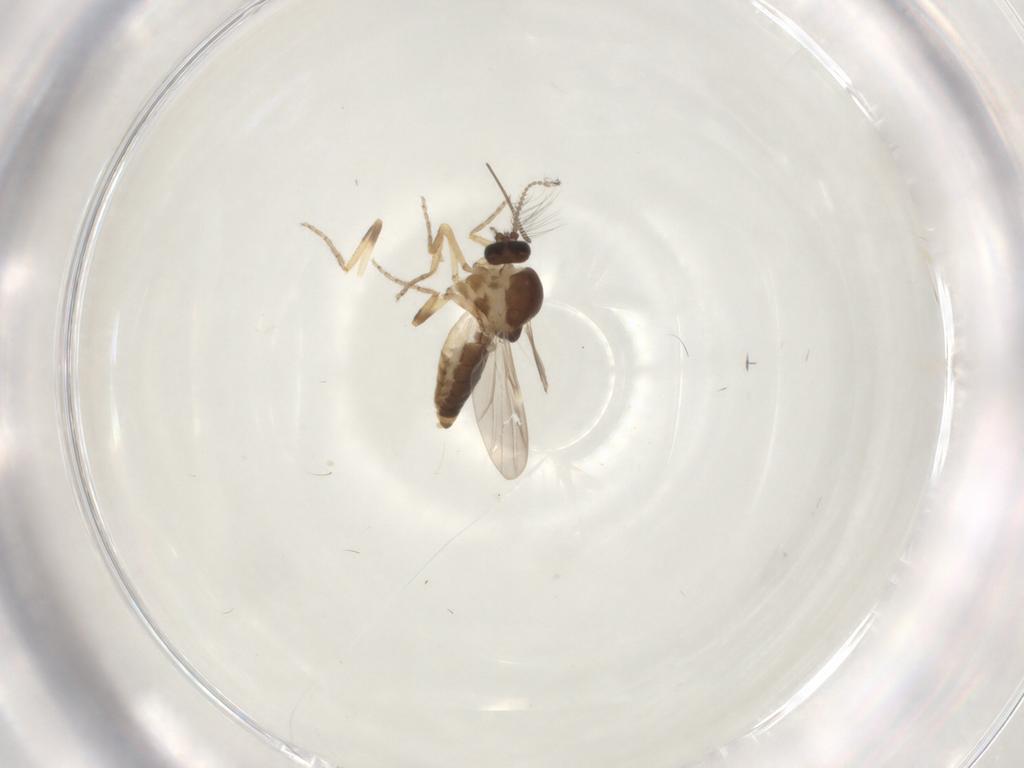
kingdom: Animalia
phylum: Arthropoda
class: Insecta
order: Diptera
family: Cecidomyiidae
